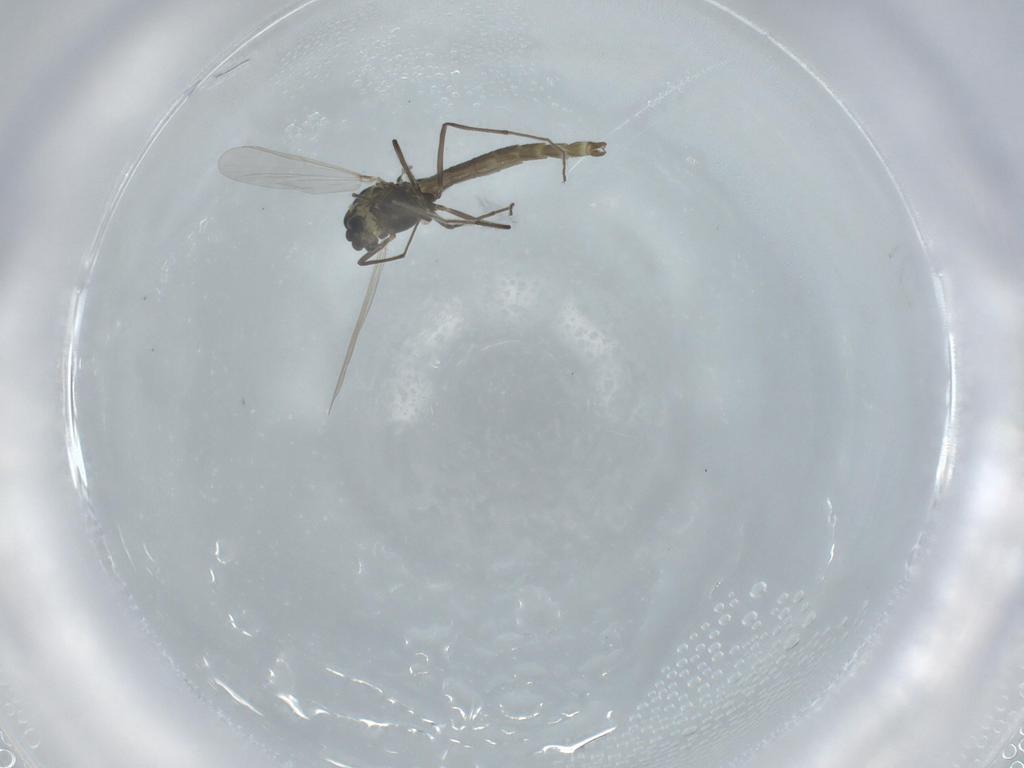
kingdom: Animalia
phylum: Arthropoda
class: Insecta
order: Diptera
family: Chironomidae
